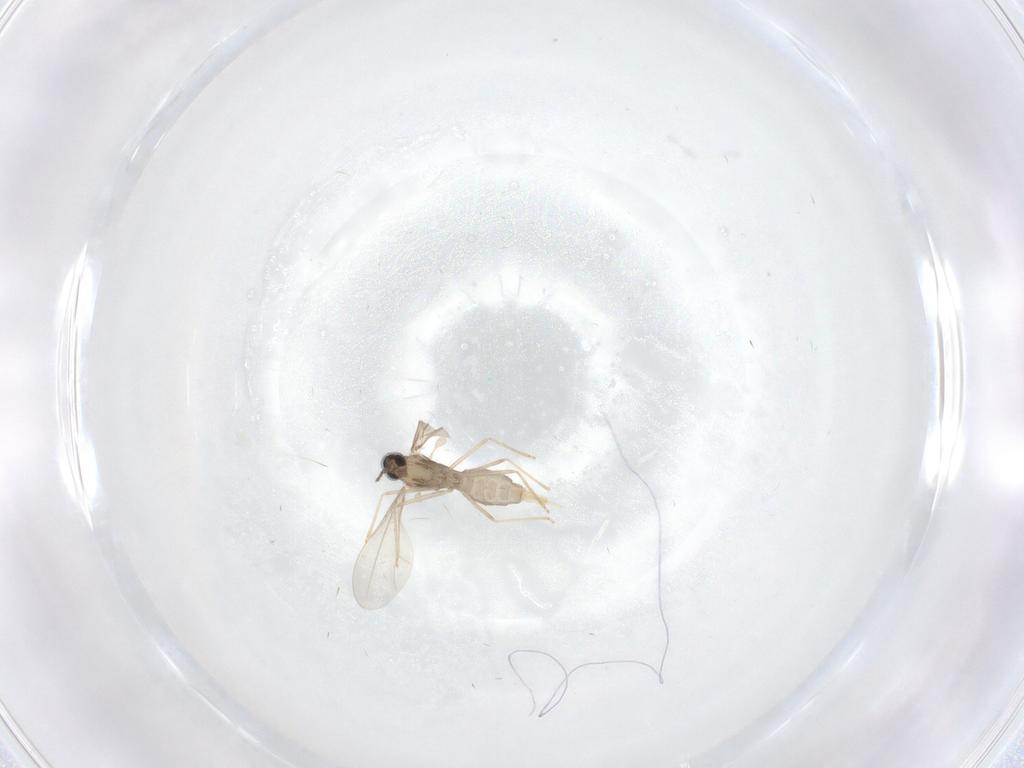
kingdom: Animalia
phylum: Arthropoda
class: Insecta
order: Diptera
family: Cecidomyiidae
